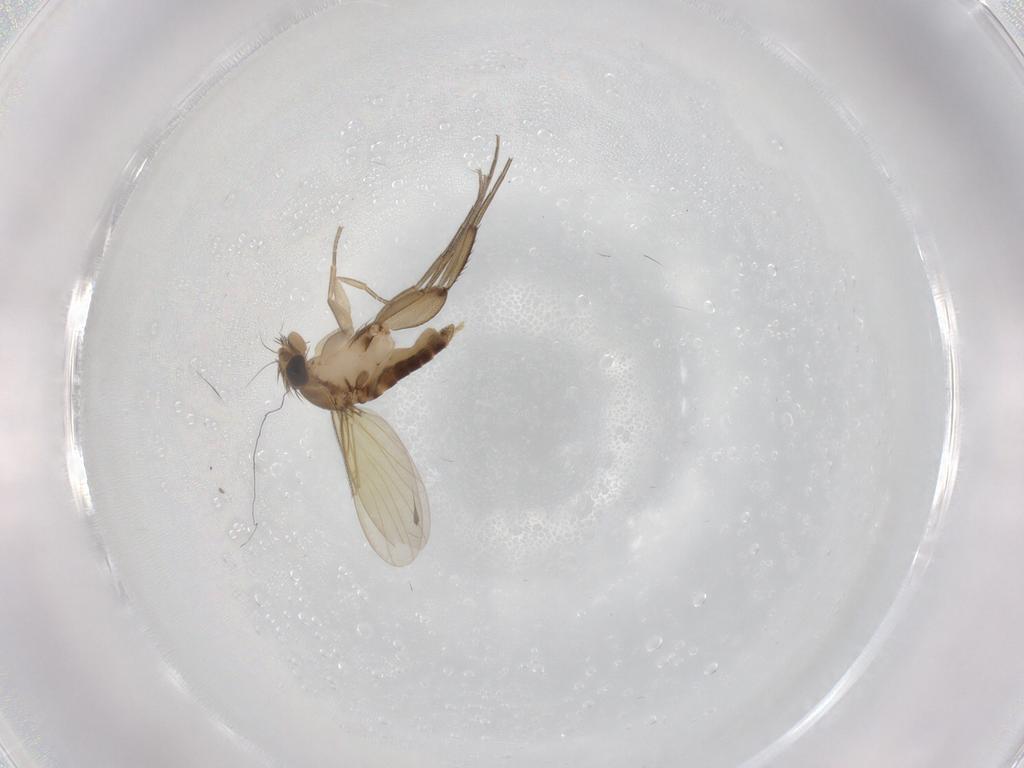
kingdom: Animalia
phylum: Arthropoda
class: Insecta
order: Diptera
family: Phoridae
